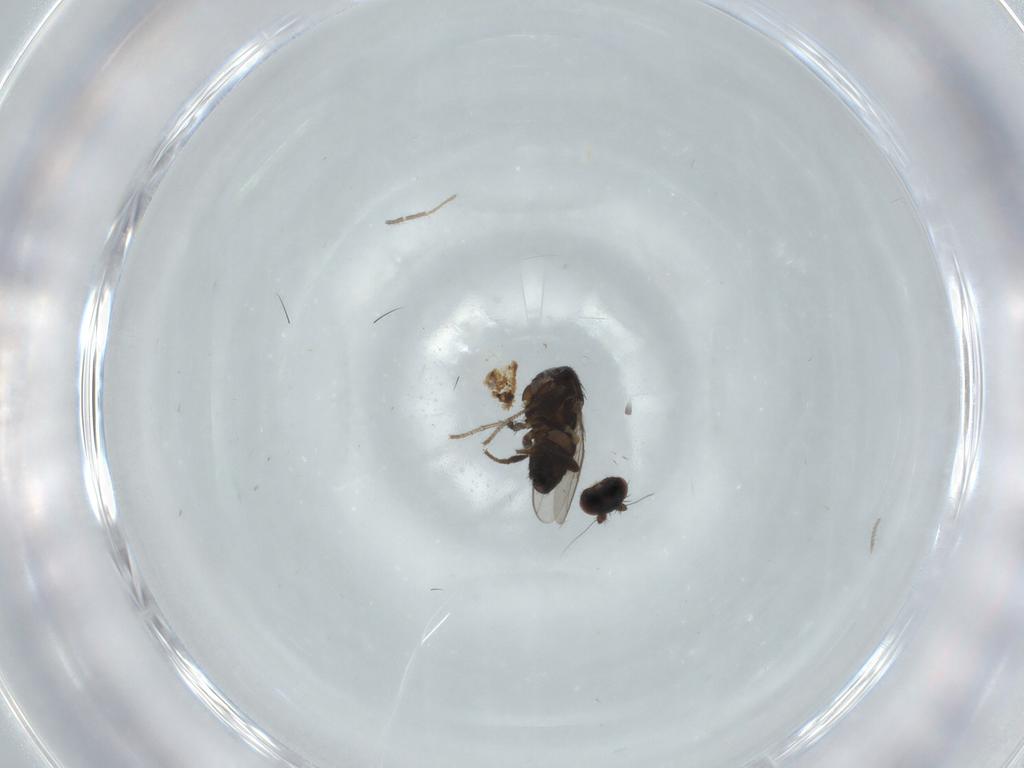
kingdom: Animalia
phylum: Arthropoda
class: Insecta
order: Diptera
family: Sphaeroceridae
